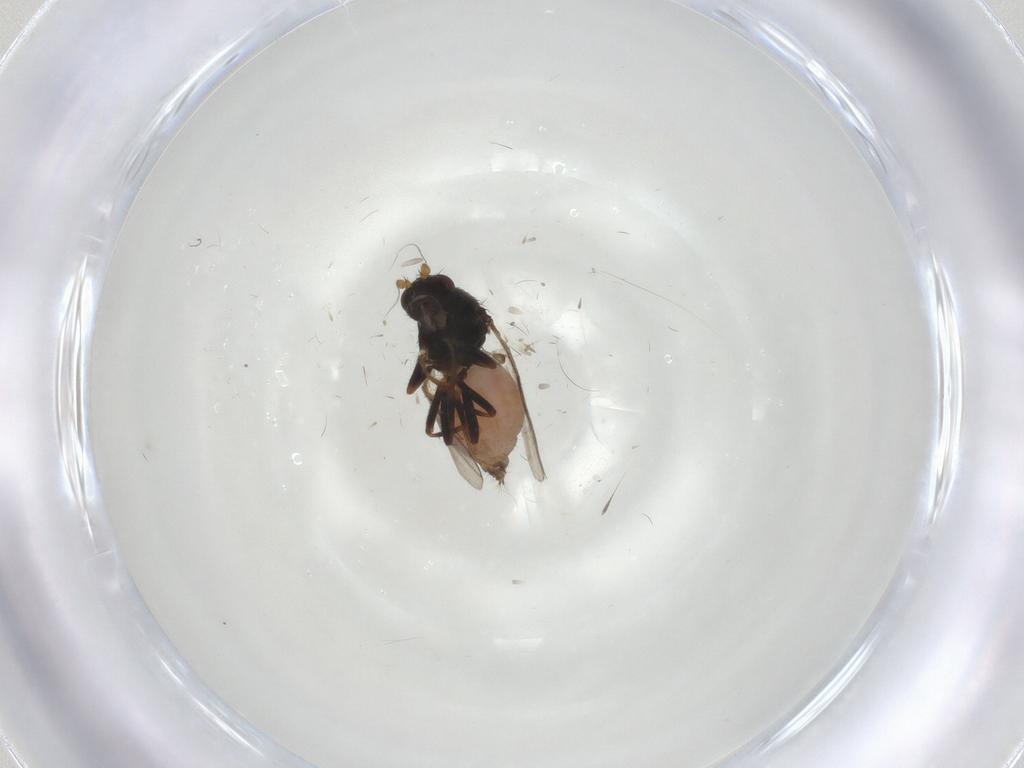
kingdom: Animalia
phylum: Arthropoda
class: Insecta
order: Diptera
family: Sphaeroceridae
